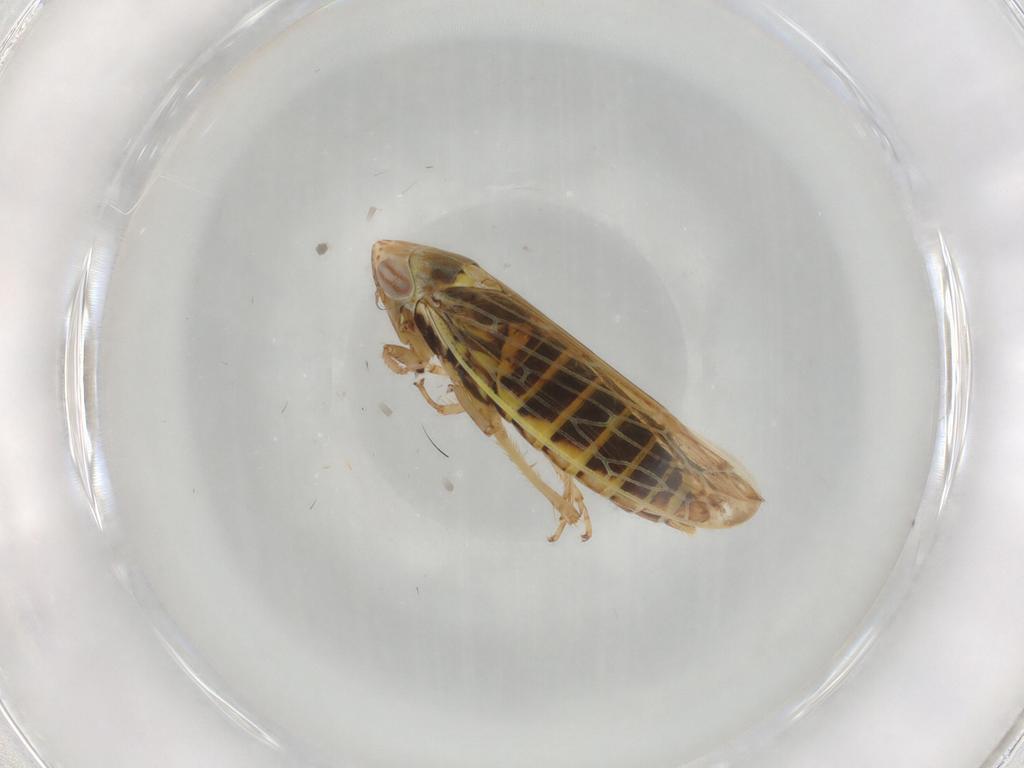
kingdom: Animalia
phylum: Arthropoda
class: Insecta
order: Hemiptera
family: Cicadellidae
